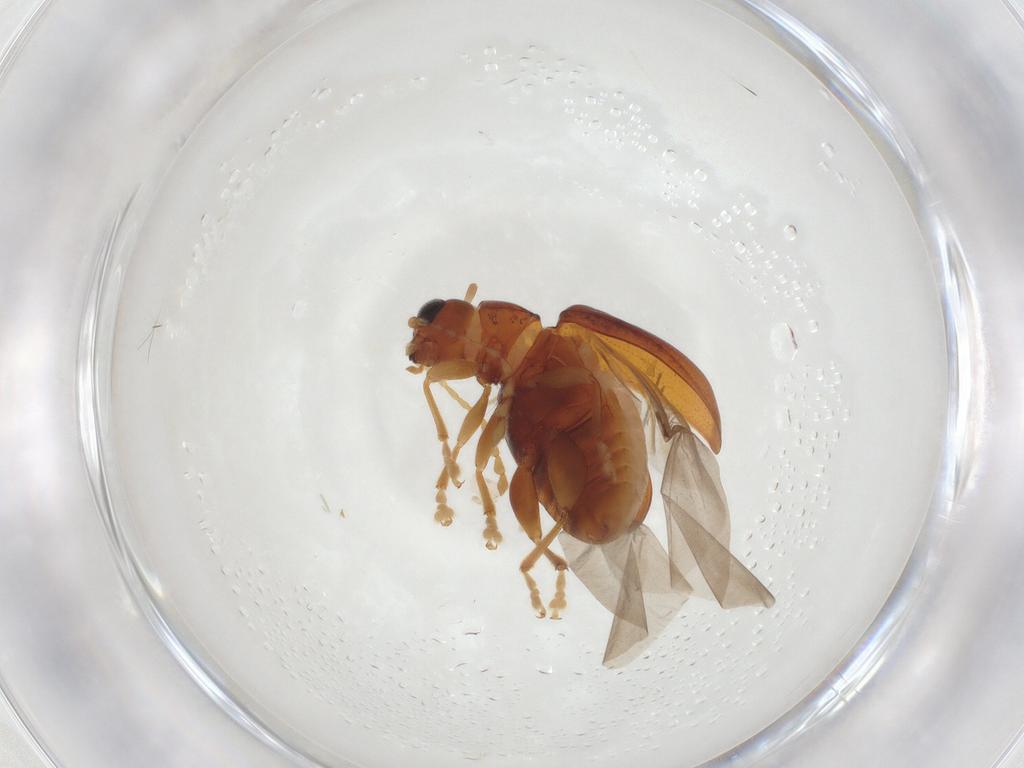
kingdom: Animalia
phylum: Arthropoda
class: Insecta
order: Coleoptera
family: Chrysomelidae
